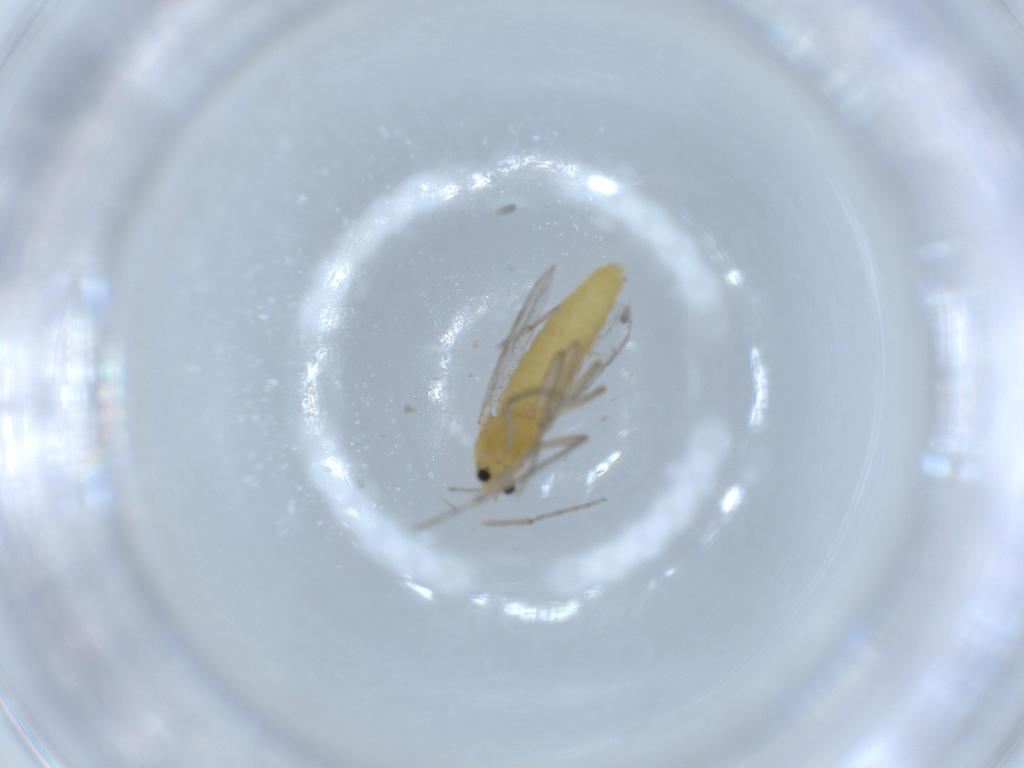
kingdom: Animalia
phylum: Arthropoda
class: Insecta
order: Diptera
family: Chironomidae
